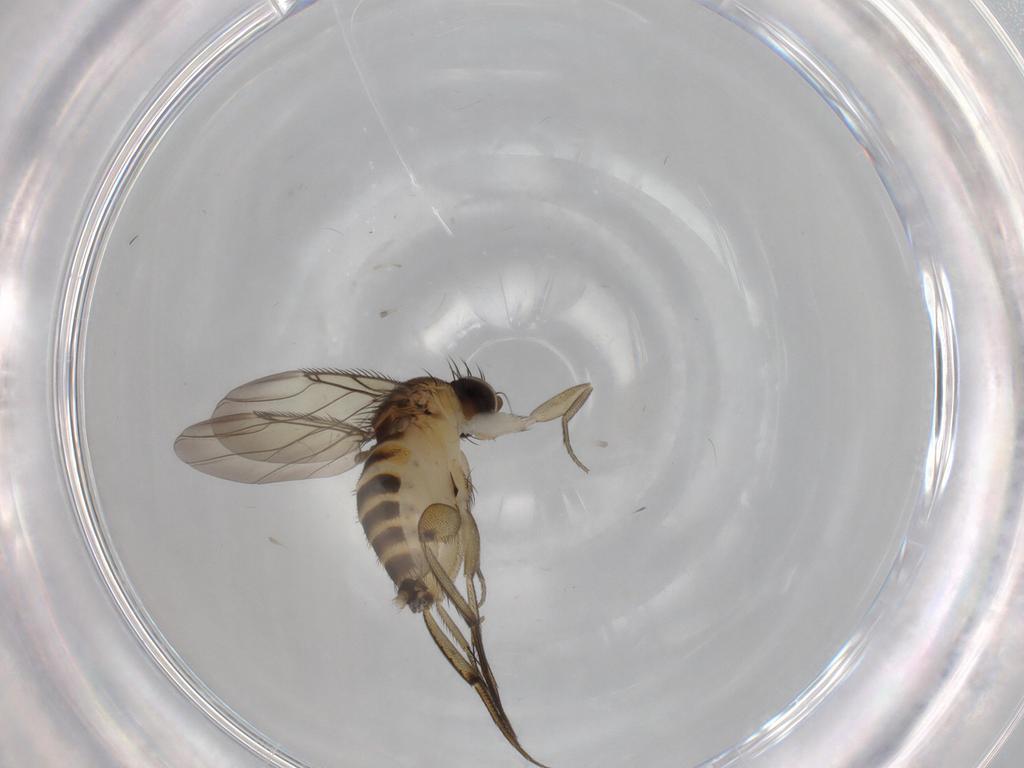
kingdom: Animalia
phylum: Arthropoda
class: Insecta
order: Diptera
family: Phoridae
